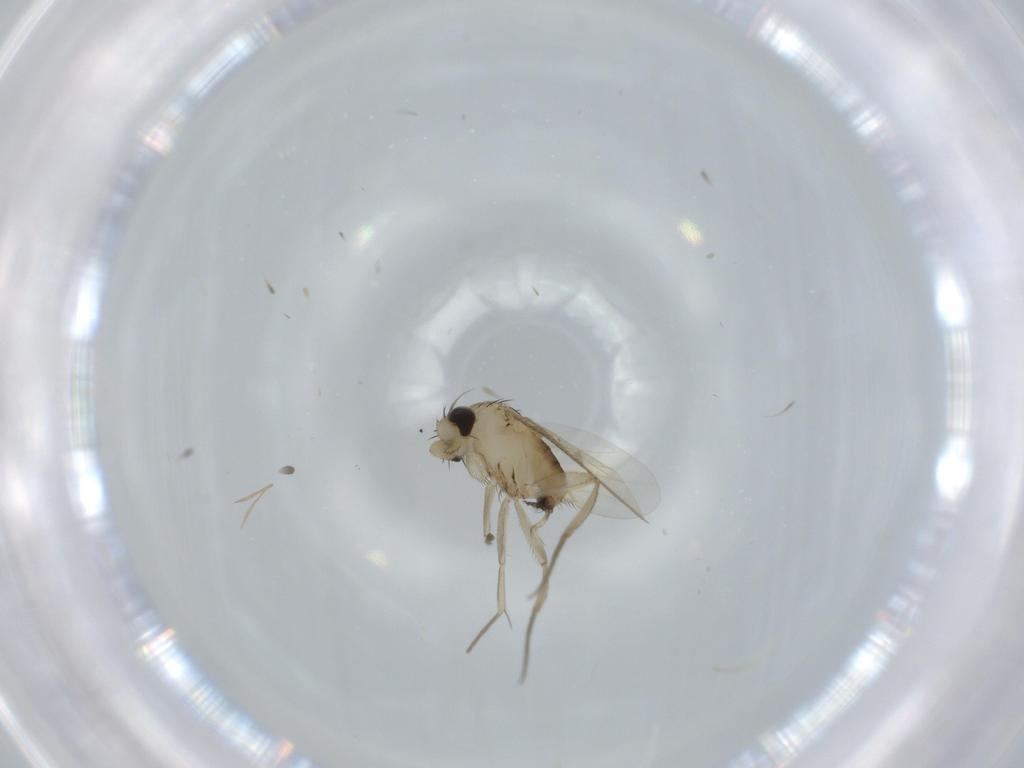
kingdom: Animalia
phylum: Arthropoda
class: Insecta
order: Diptera
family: Phoridae
